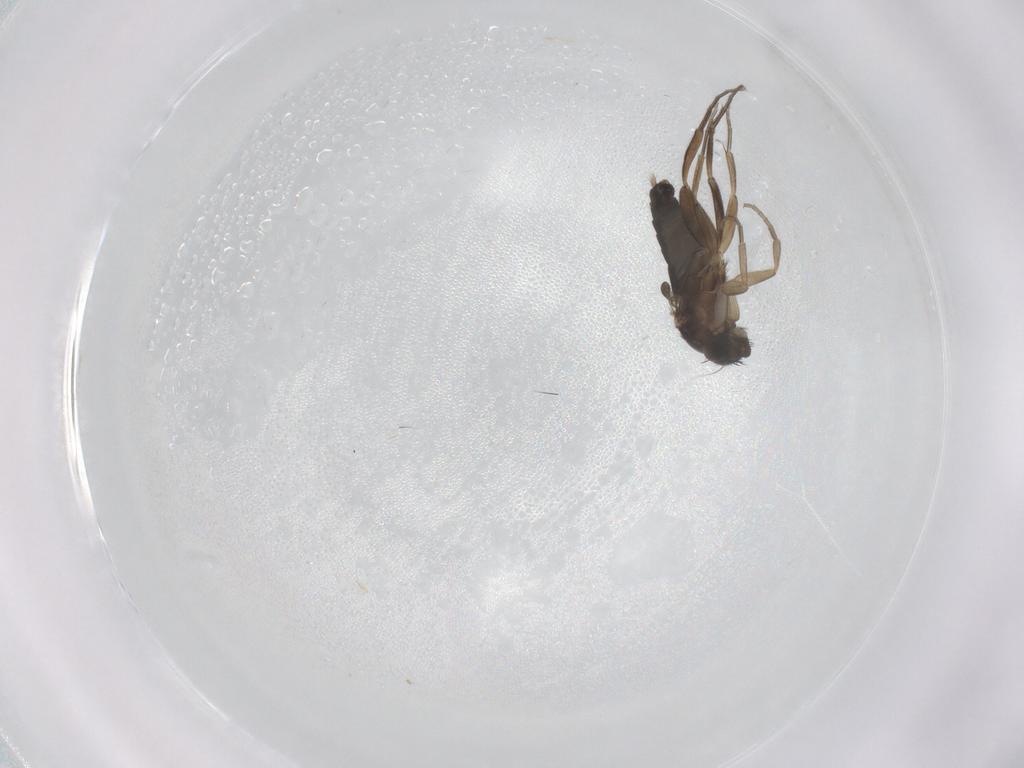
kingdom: Animalia
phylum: Arthropoda
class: Insecta
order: Diptera
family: Phoridae
